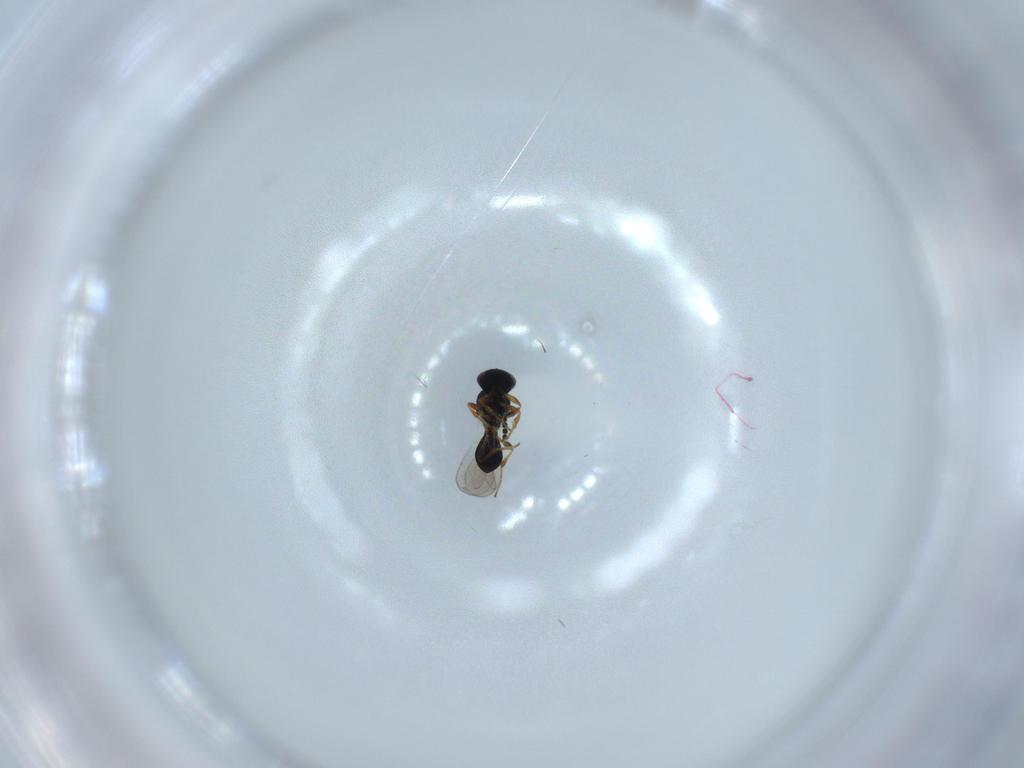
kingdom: Animalia
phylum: Arthropoda
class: Insecta
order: Hymenoptera
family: Platygastridae
